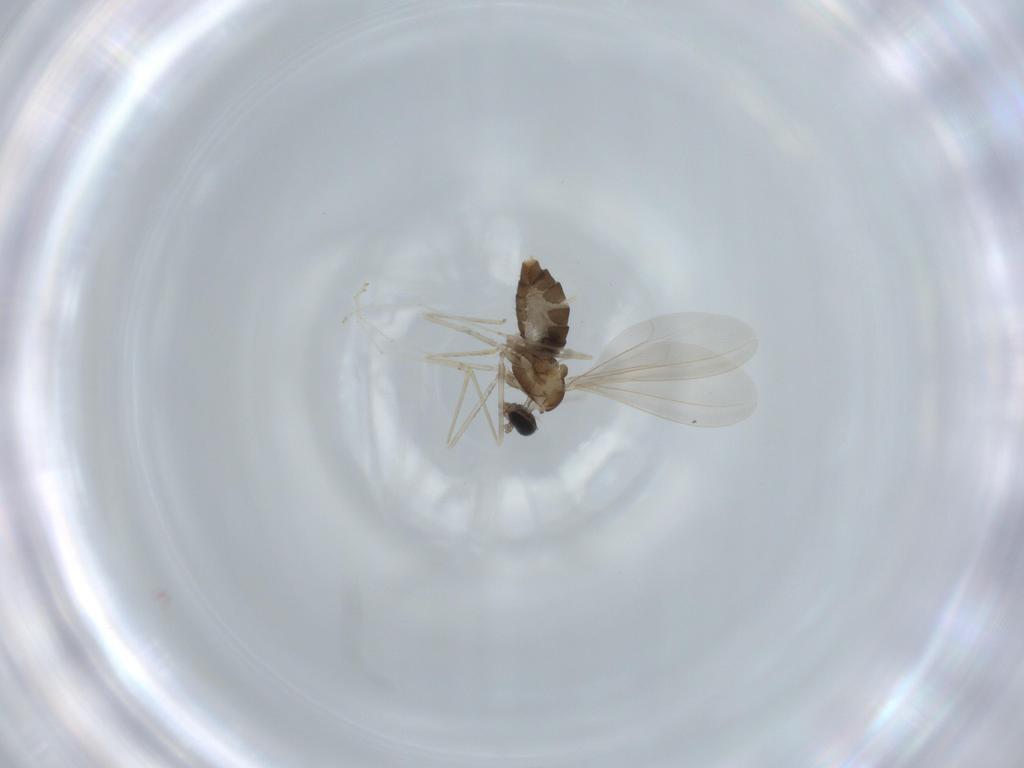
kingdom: Animalia
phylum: Arthropoda
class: Insecta
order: Diptera
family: Cecidomyiidae
